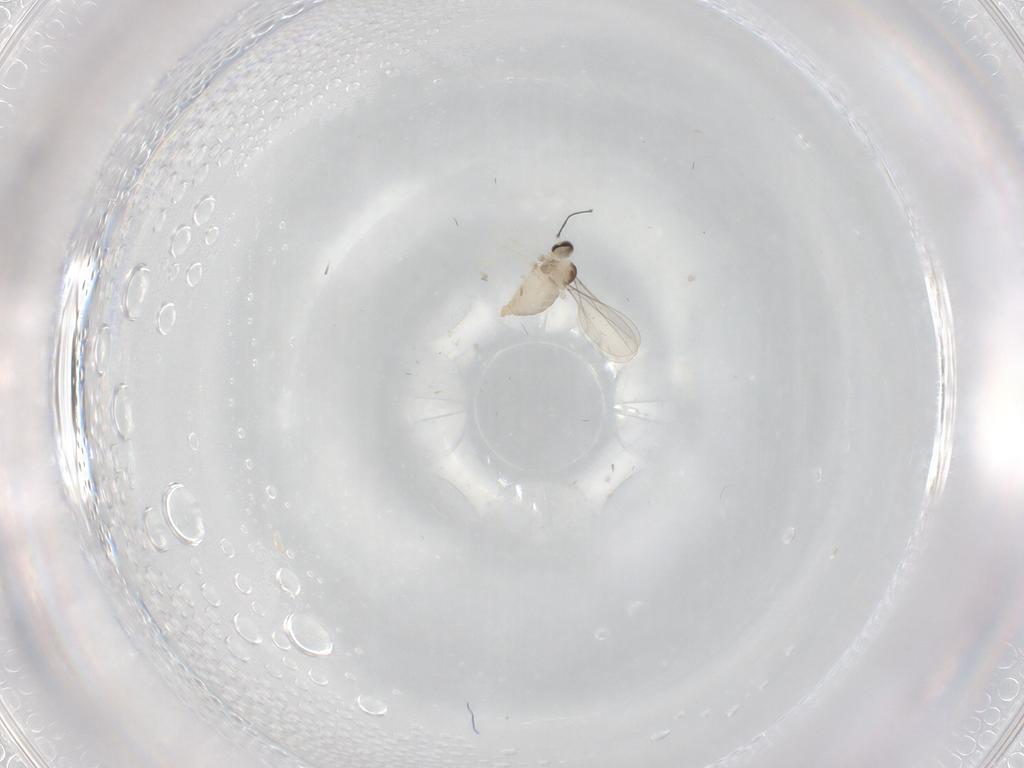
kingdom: Animalia
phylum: Arthropoda
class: Insecta
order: Diptera
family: Cecidomyiidae
